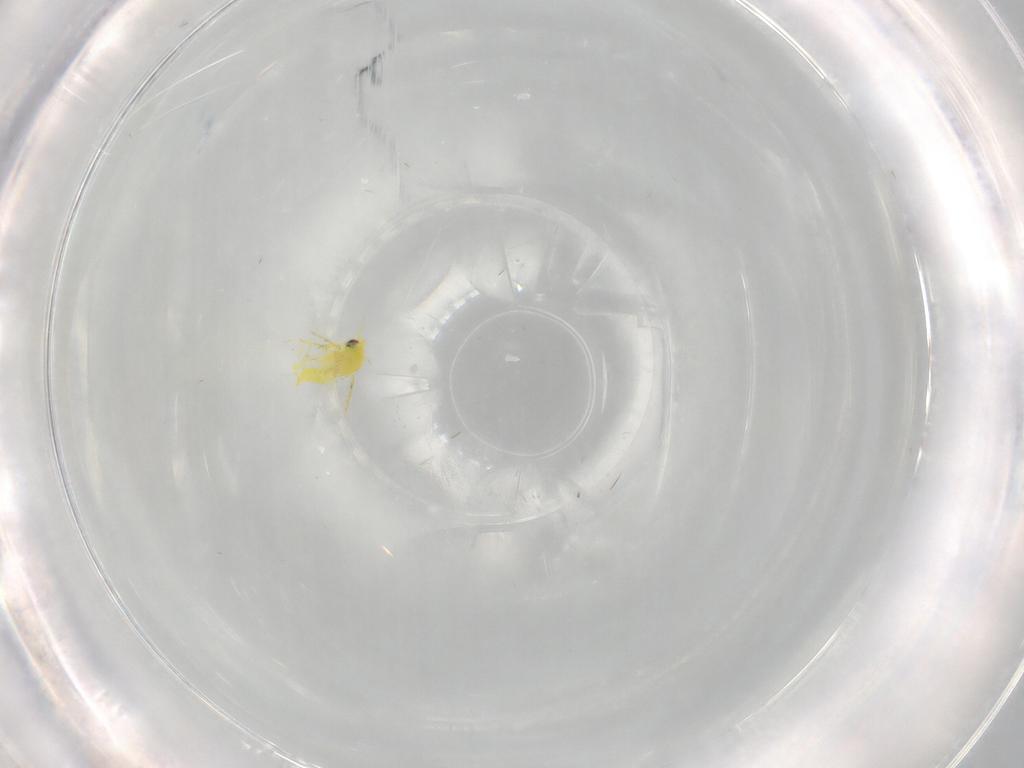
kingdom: Animalia
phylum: Arthropoda
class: Insecta
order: Hemiptera
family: Aleyrodidae
